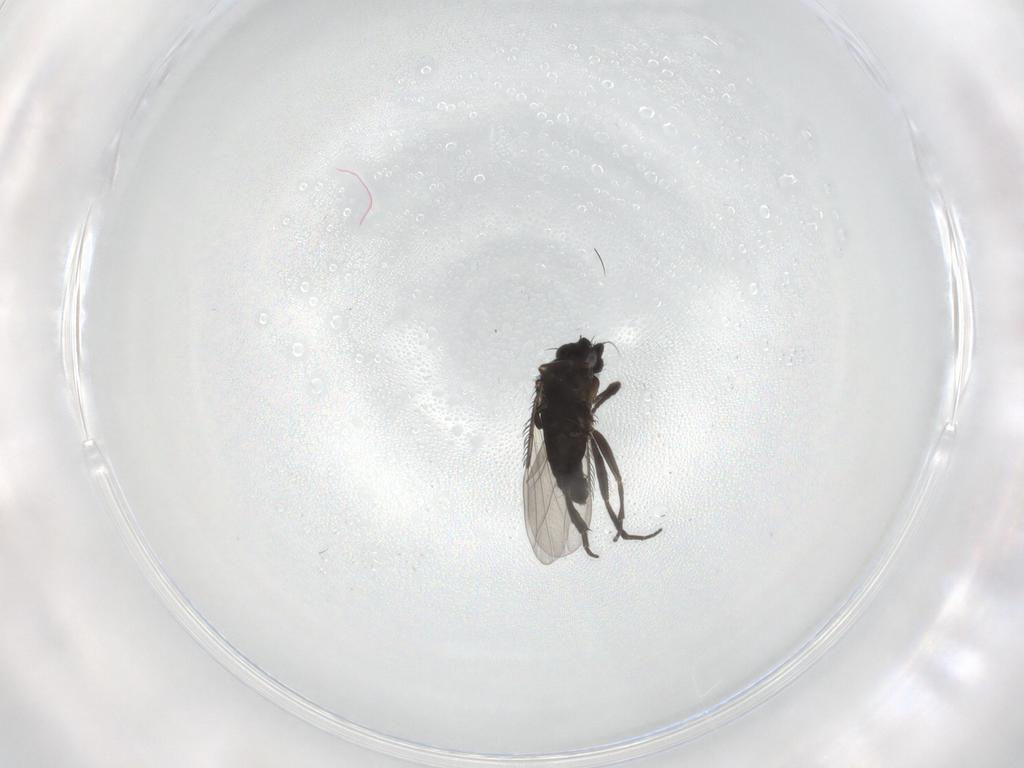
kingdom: Animalia
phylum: Arthropoda
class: Insecta
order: Diptera
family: Phoridae
